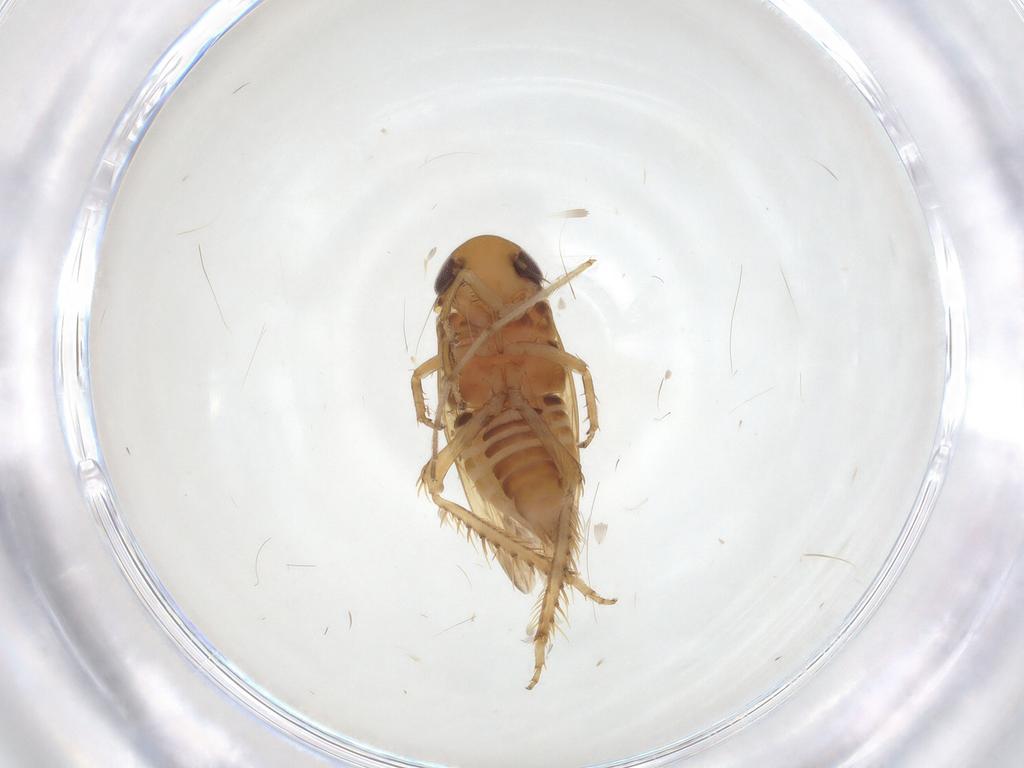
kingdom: Animalia
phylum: Arthropoda
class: Insecta
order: Hemiptera
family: Cicadellidae
